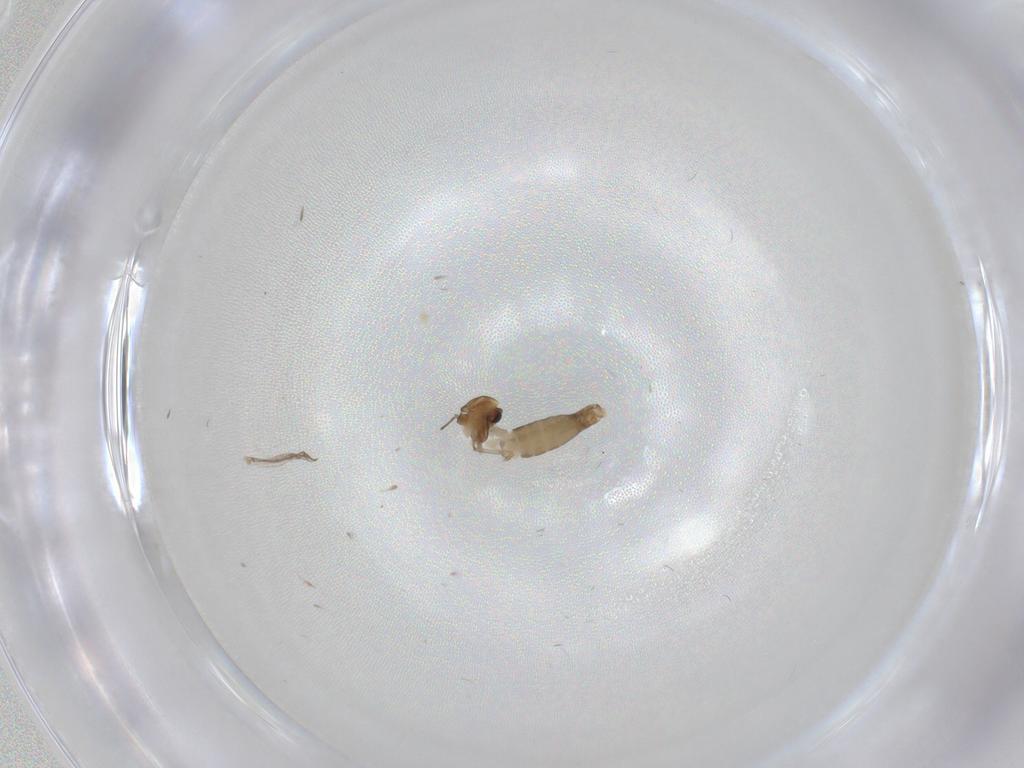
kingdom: Animalia
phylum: Arthropoda
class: Insecta
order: Diptera
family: Chironomidae
